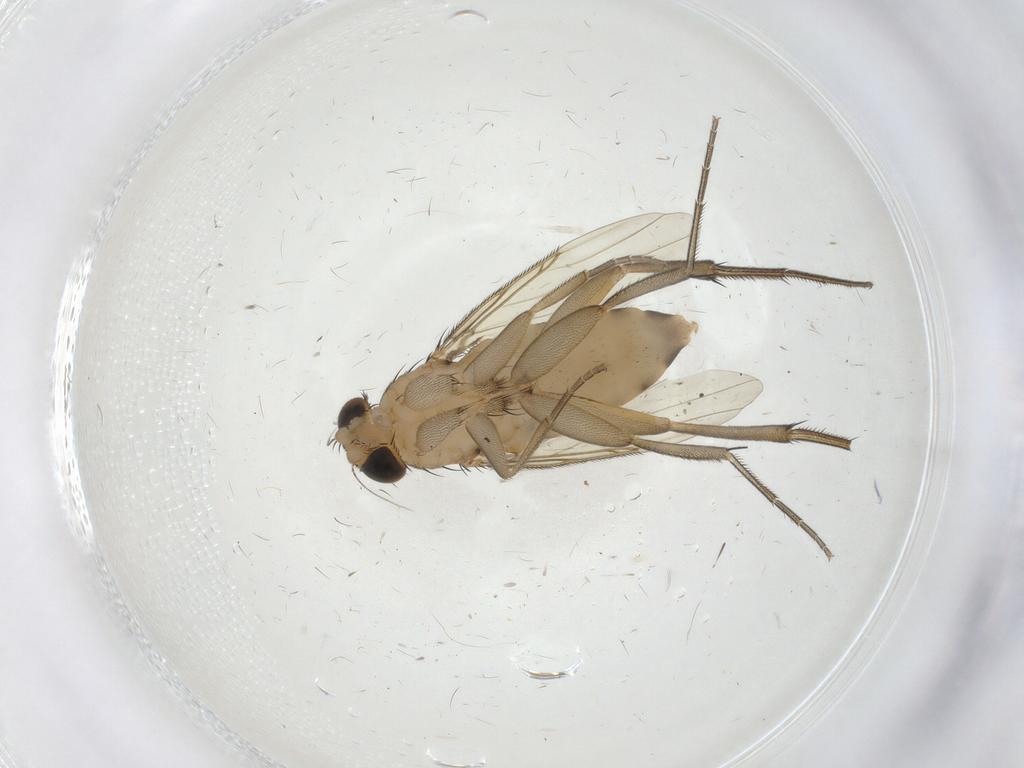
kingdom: Animalia
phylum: Arthropoda
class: Insecta
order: Diptera
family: Phoridae
